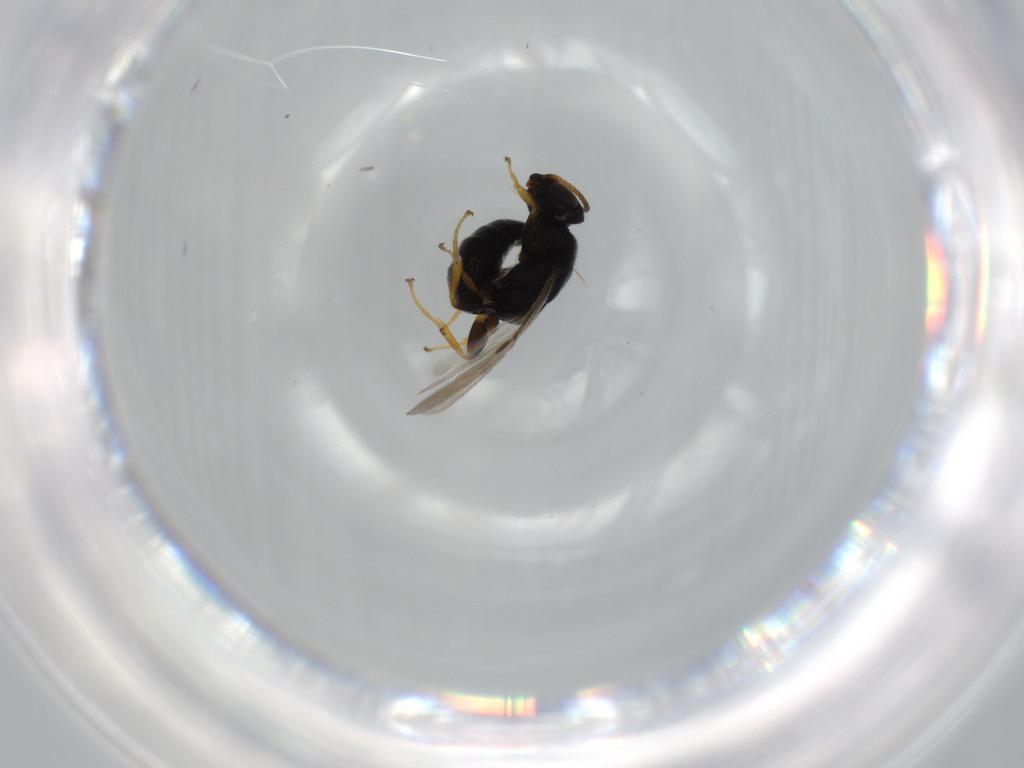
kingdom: Animalia
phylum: Arthropoda
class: Insecta
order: Hymenoptera
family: Bethylidae
